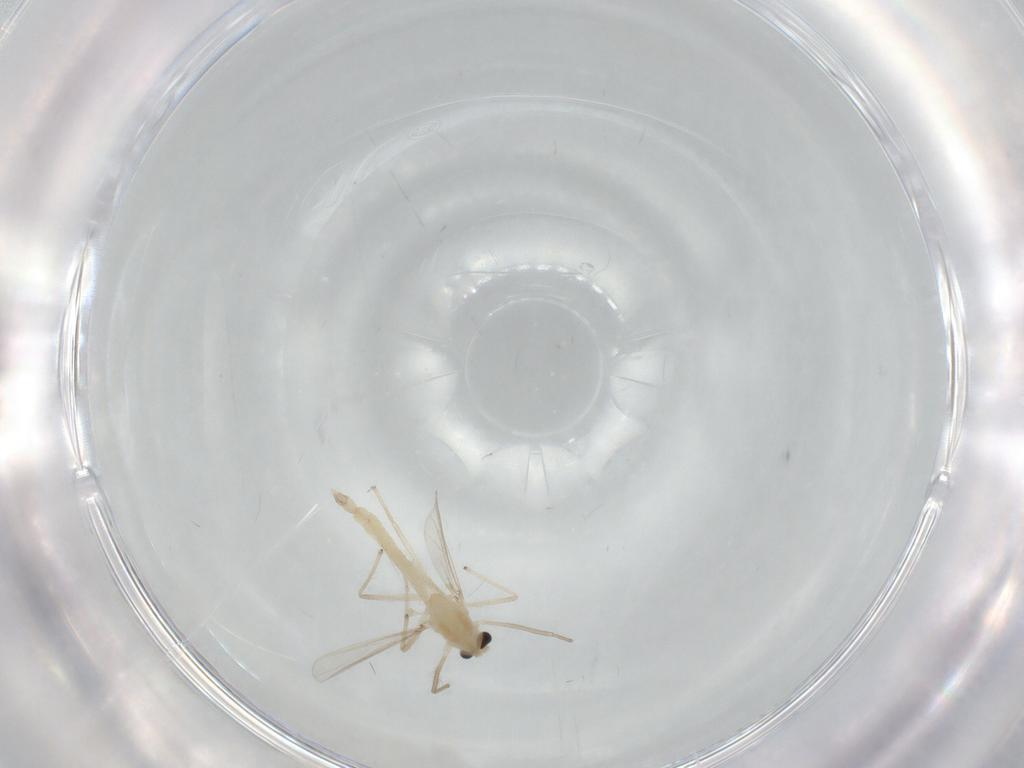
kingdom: Animalia
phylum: Arthropoda
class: Insecta
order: Diptera
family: Chironomidae
